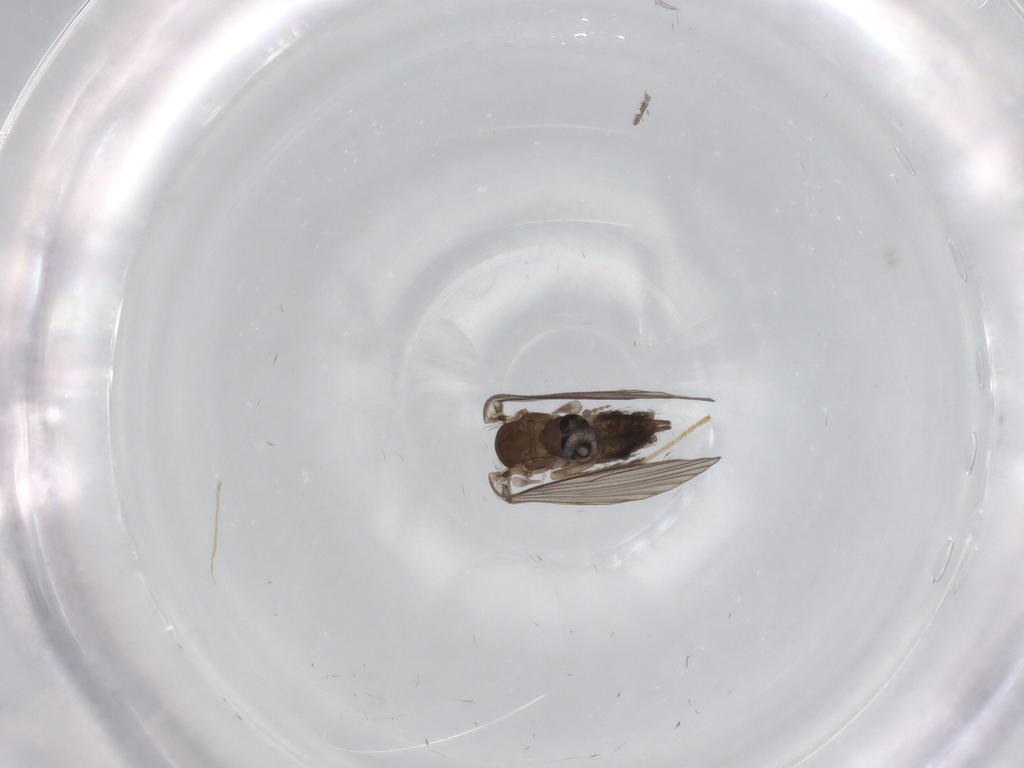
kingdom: Animalia
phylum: Arthropoda
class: Insecta
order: Diptera
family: Psychodidae
